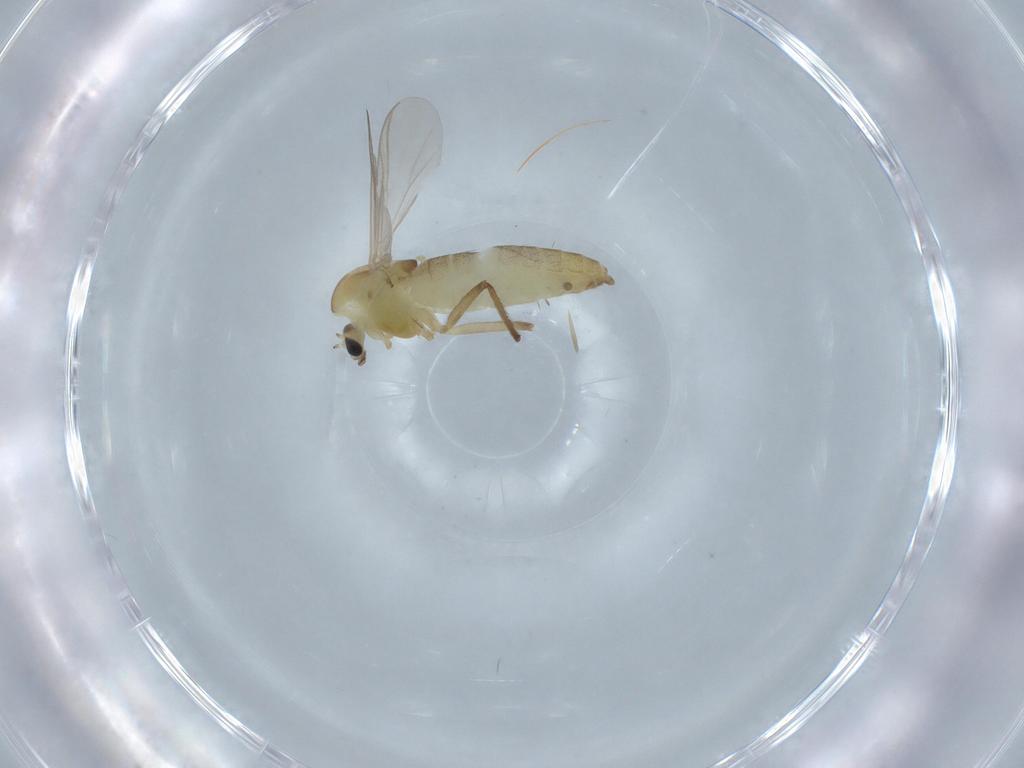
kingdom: Animalia
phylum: Arthropoda
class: Insecta
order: Diptera
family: Chironomidae
